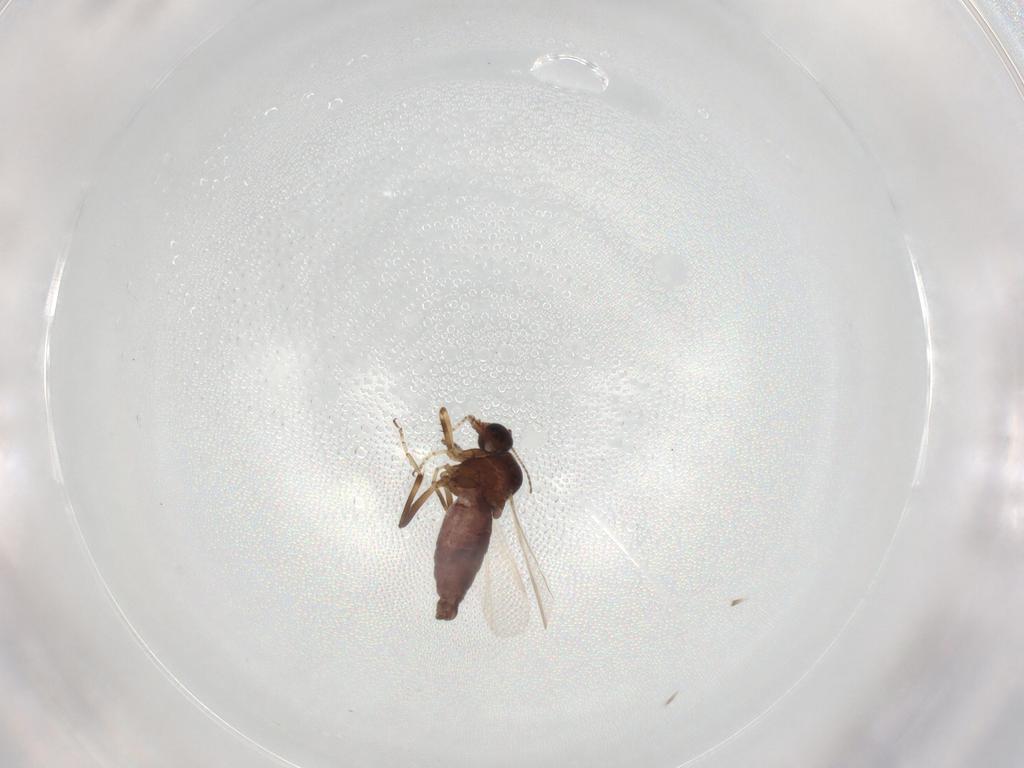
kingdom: Animalia
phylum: Arthropoda
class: Insecta
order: Diptera
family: Ceratopogonidae
